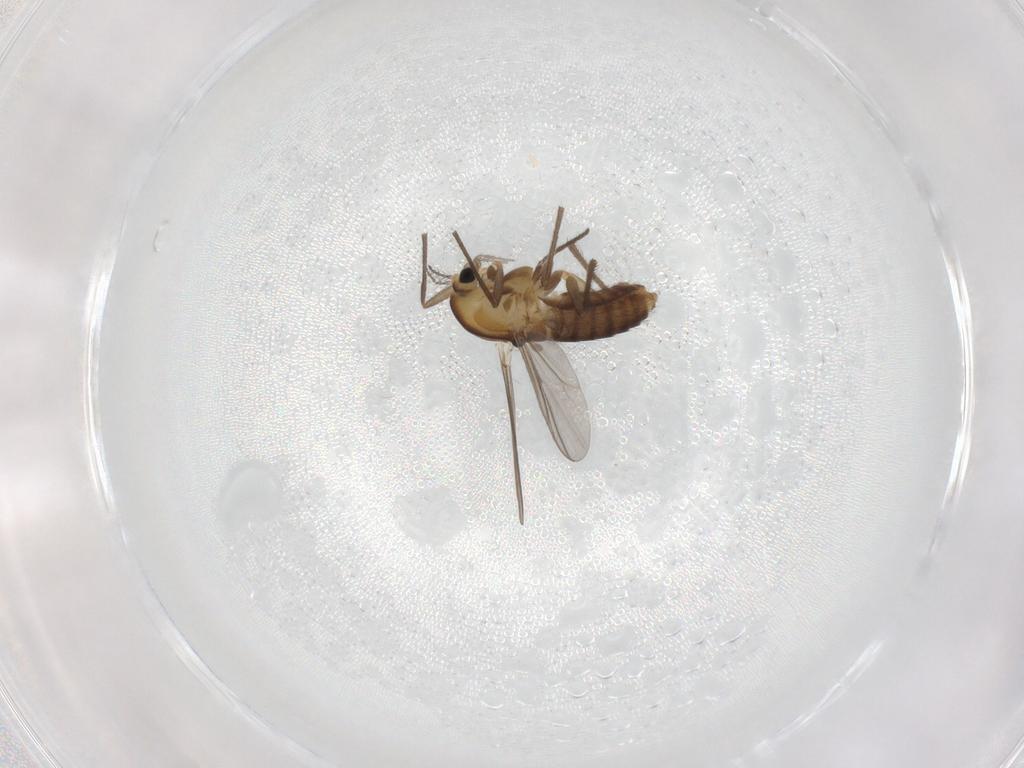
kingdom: Animalia
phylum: Arthropoda
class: Insecta
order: Diptera
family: Chironomidae
